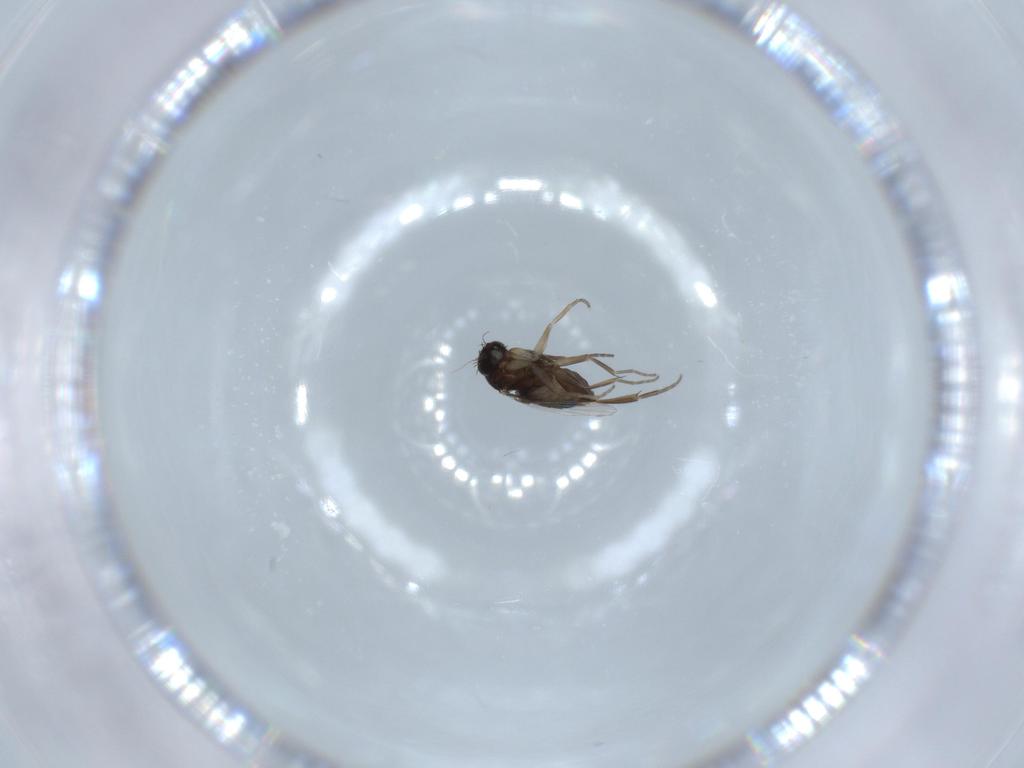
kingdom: Animalia
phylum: Arthropoda
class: Insecta
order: Diptera
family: Phoridae
